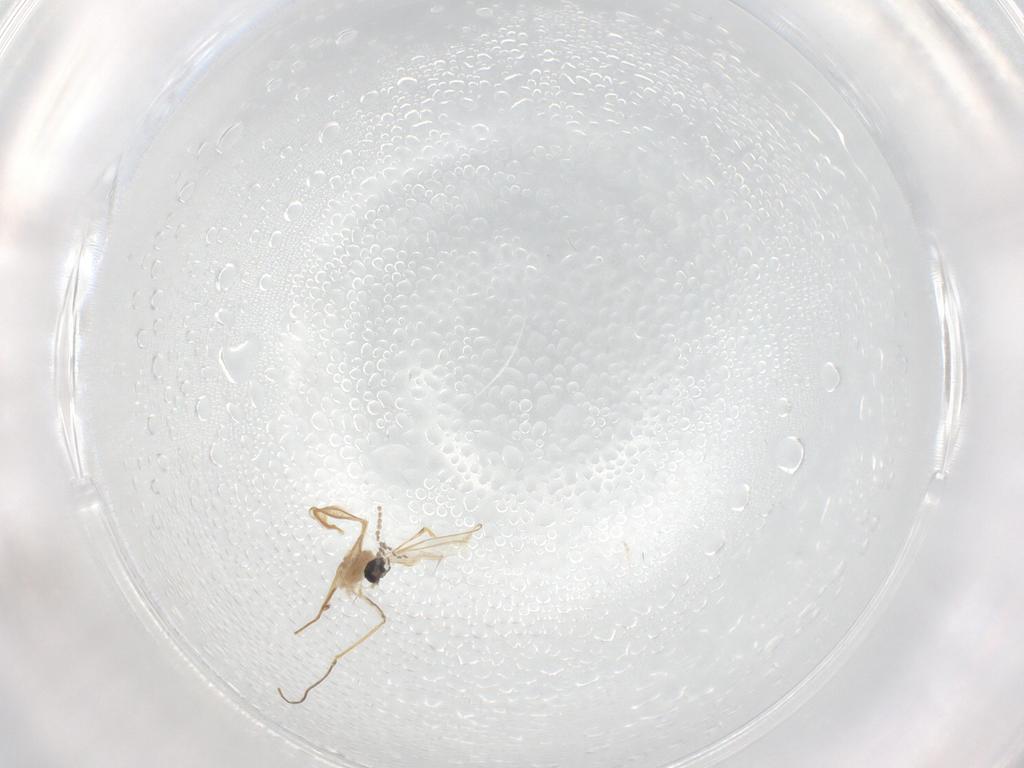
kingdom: Animalia
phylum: Arthropoda
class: Insecta
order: Diptera
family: Cecidomyiidae
